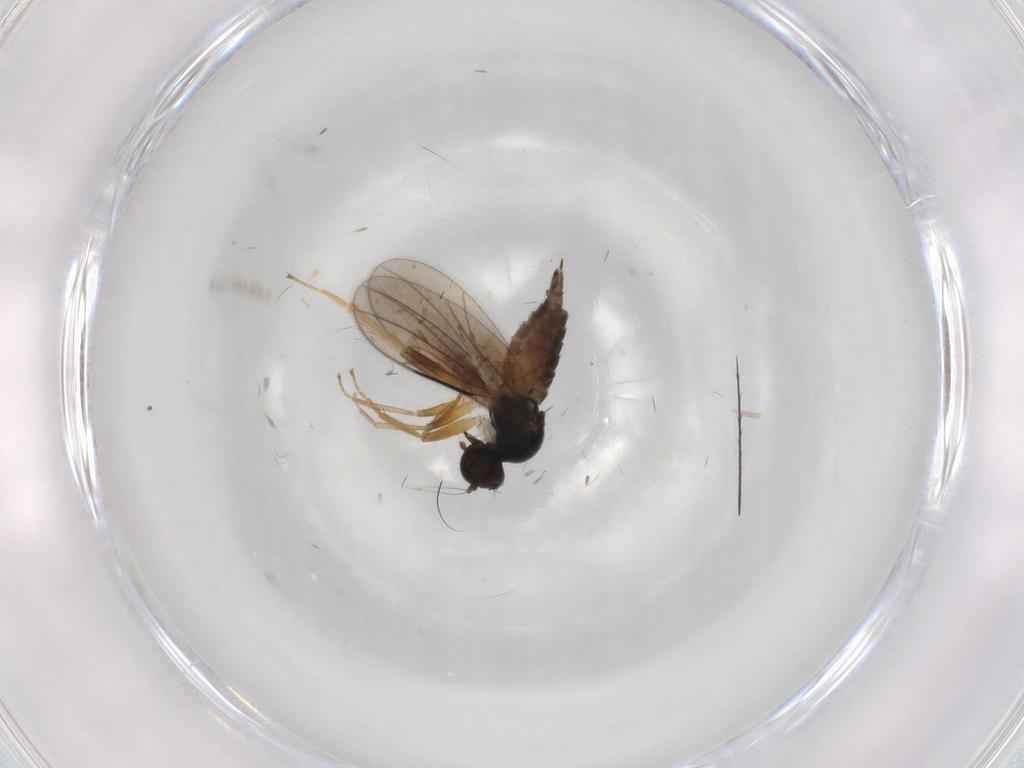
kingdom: Animalia
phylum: Arthropoda
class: Insecta
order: Diptera
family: Hybotidae
